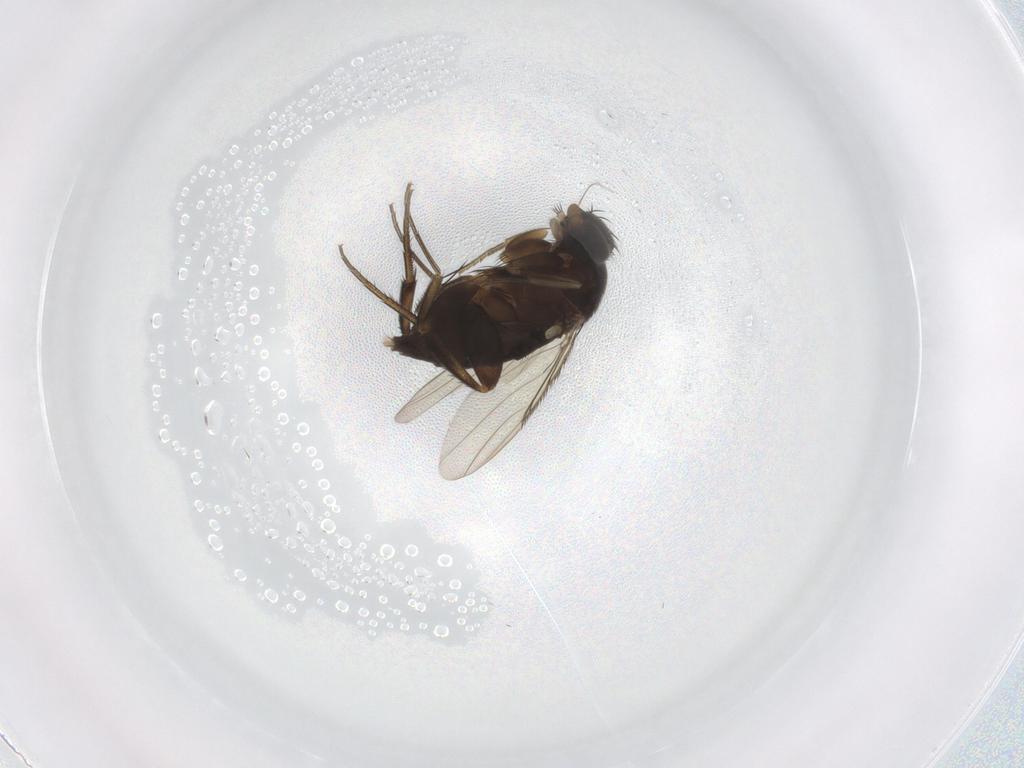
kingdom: Animalia
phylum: Arthropoda
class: Insecta
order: Diptera
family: Phoridae
